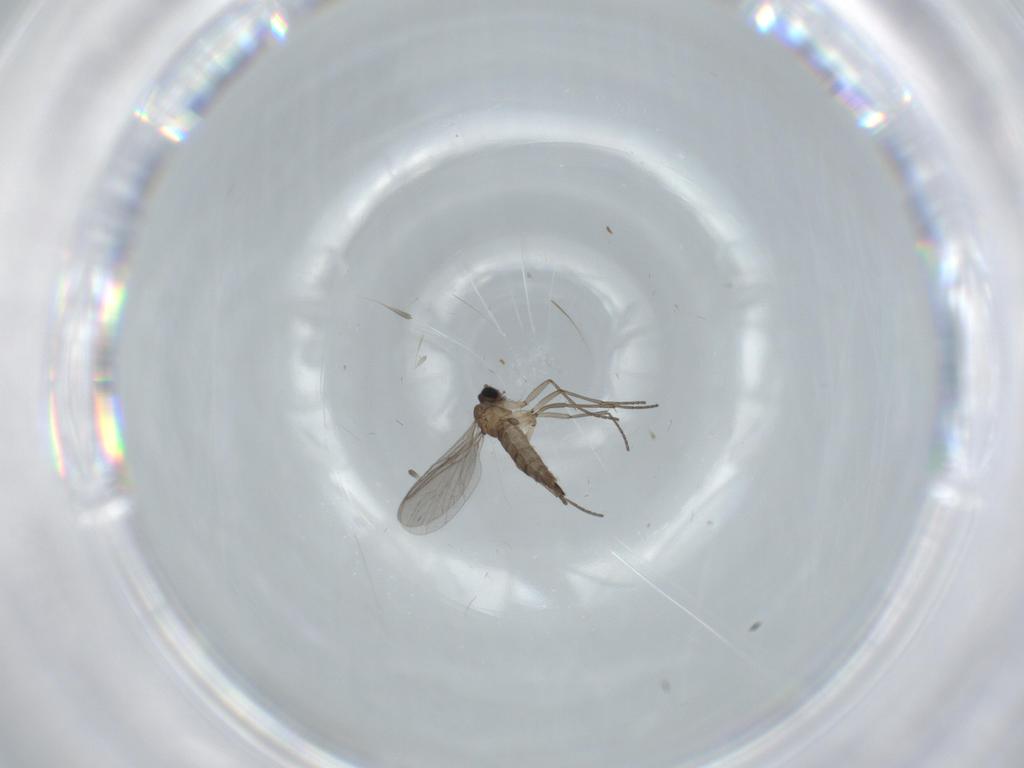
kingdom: Animalia
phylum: Arthropoda
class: Insecta
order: Diptera
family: Sciaridae
